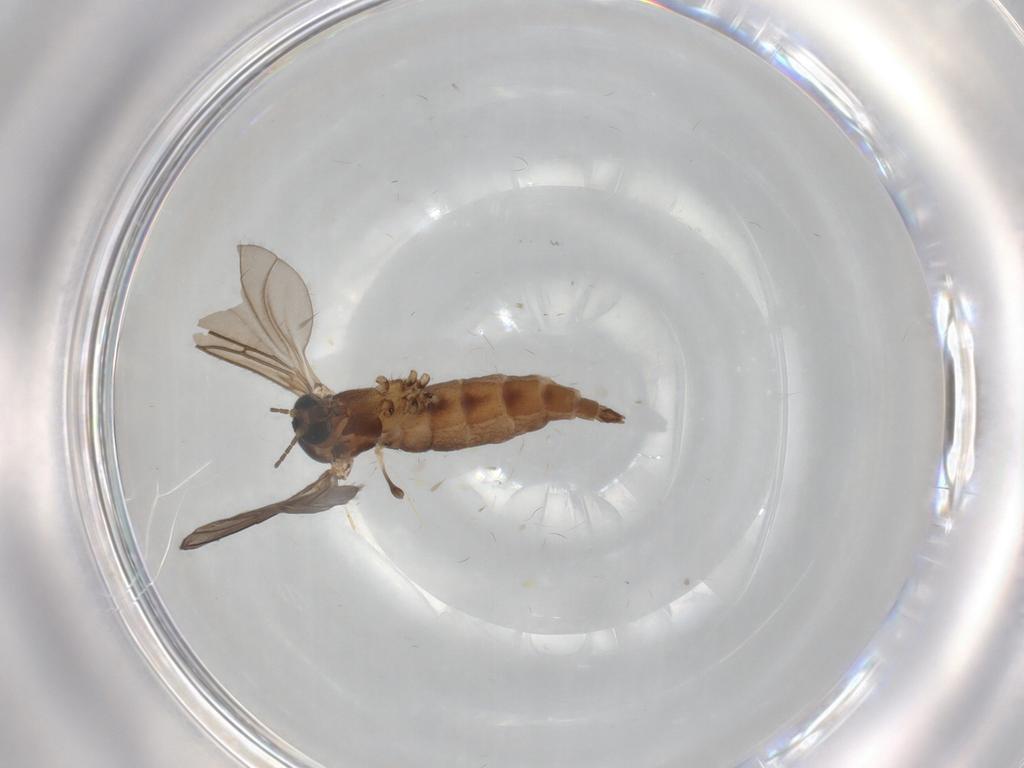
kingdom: Animalia
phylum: Arthropoda
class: Insecta
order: Diptera
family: Sciaridae
